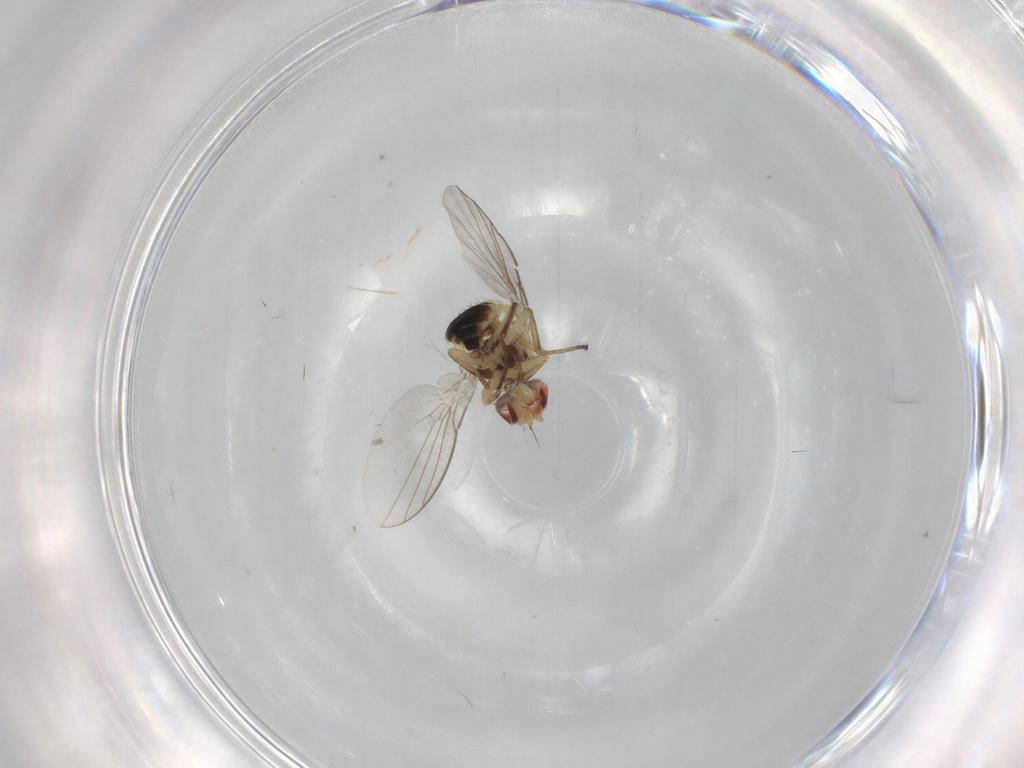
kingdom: Animalia
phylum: Arthropoda
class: Insecta
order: Diptera
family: Agromyzidae
